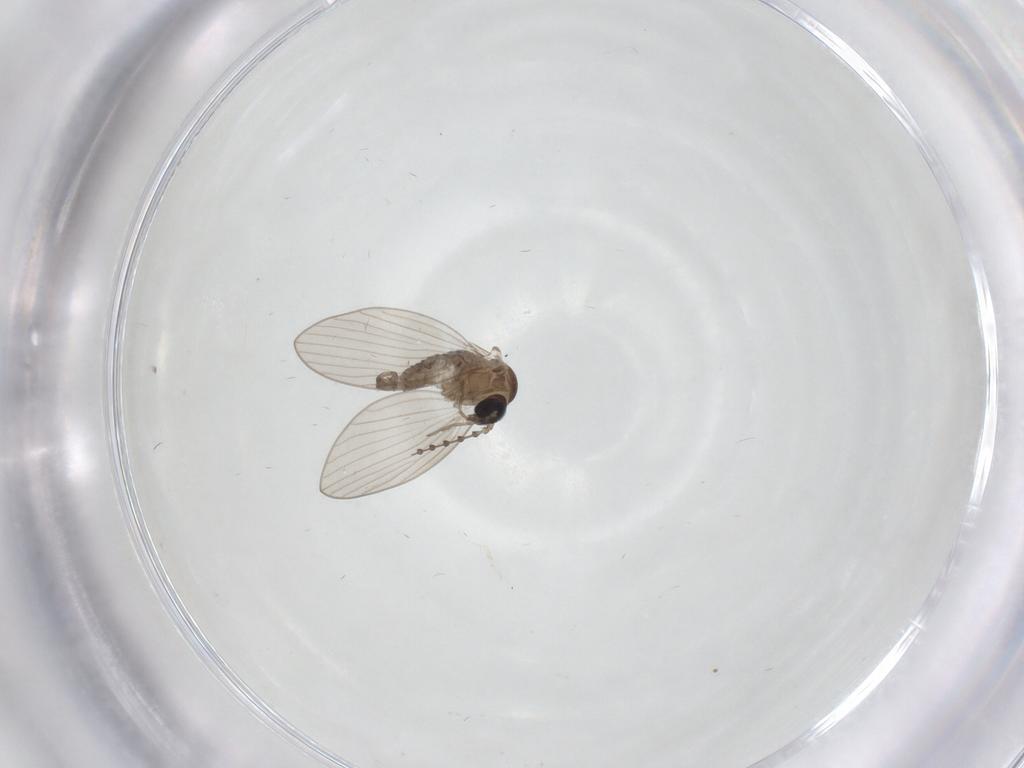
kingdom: Animalia
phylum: Arthropoda
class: Insecta
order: Diptera
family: Psychodidae
